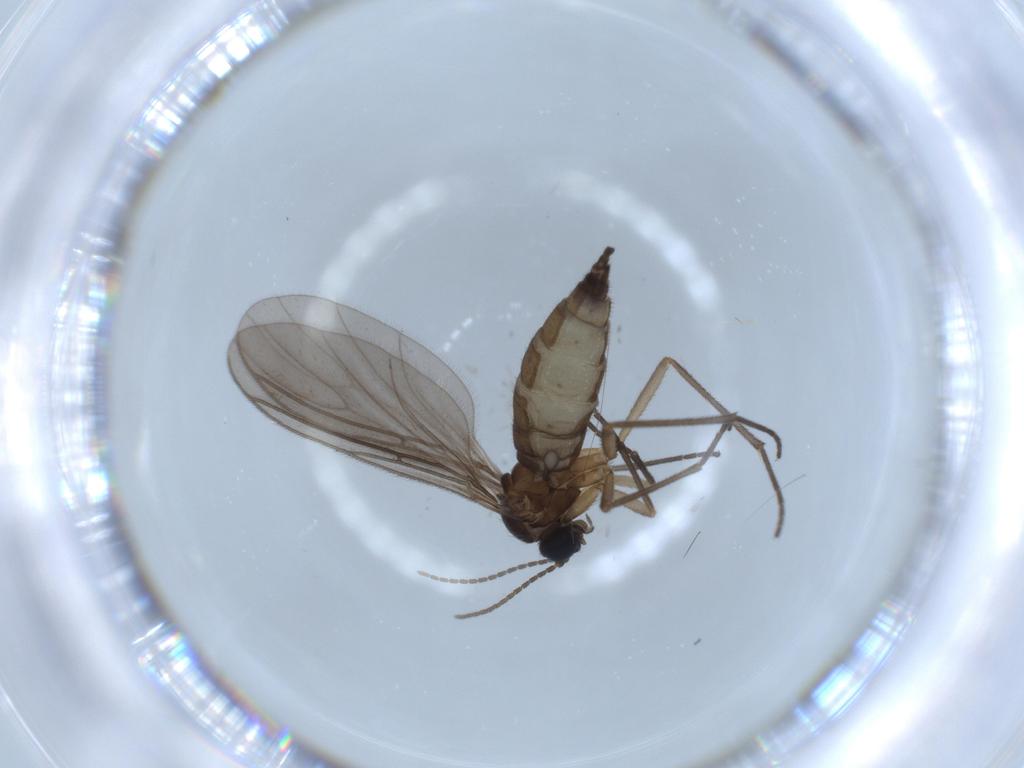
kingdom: Animalia
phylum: Arthropoda
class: Insecta
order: Diptera
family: Sciaridae
